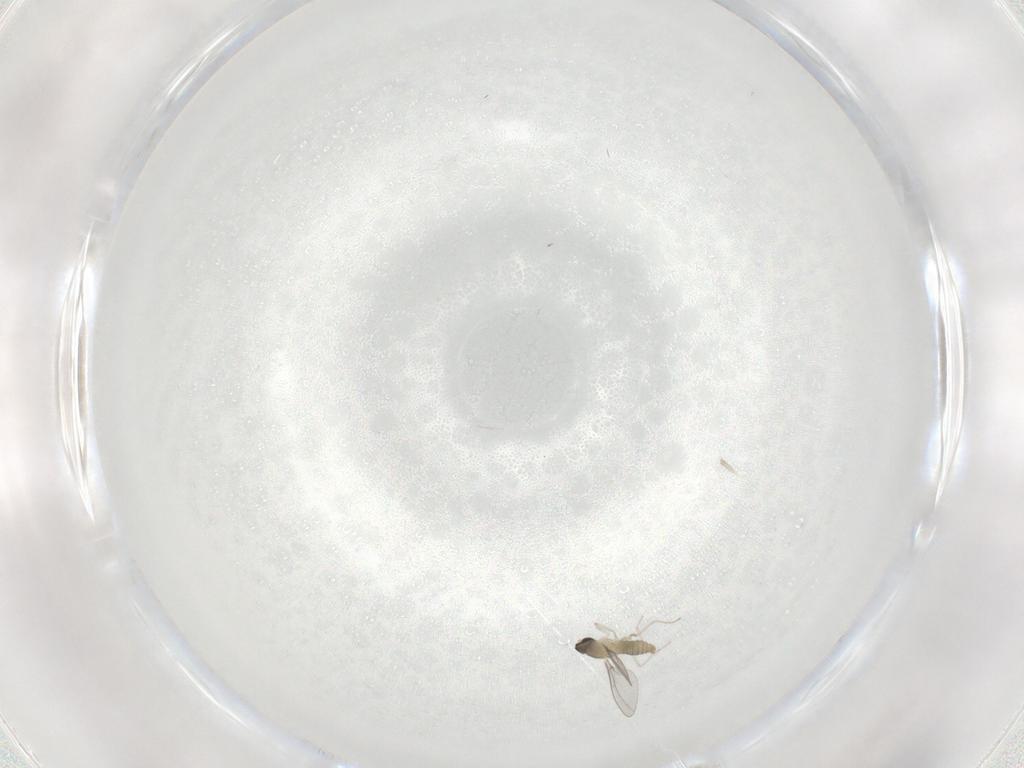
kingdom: Animalia
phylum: Arthropoda
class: Insecta
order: Diptera
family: Cecidomyiidae
